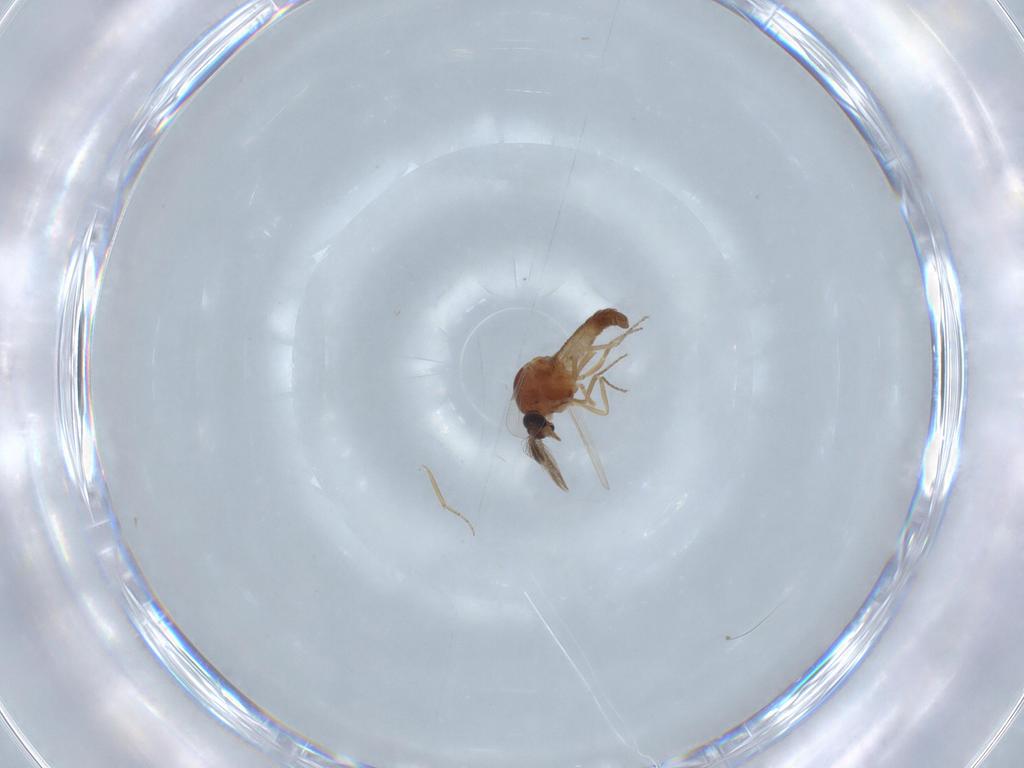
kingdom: Animalia
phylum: Arthropoda
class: Insecta
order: Diptera
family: Ceratopogonidae
